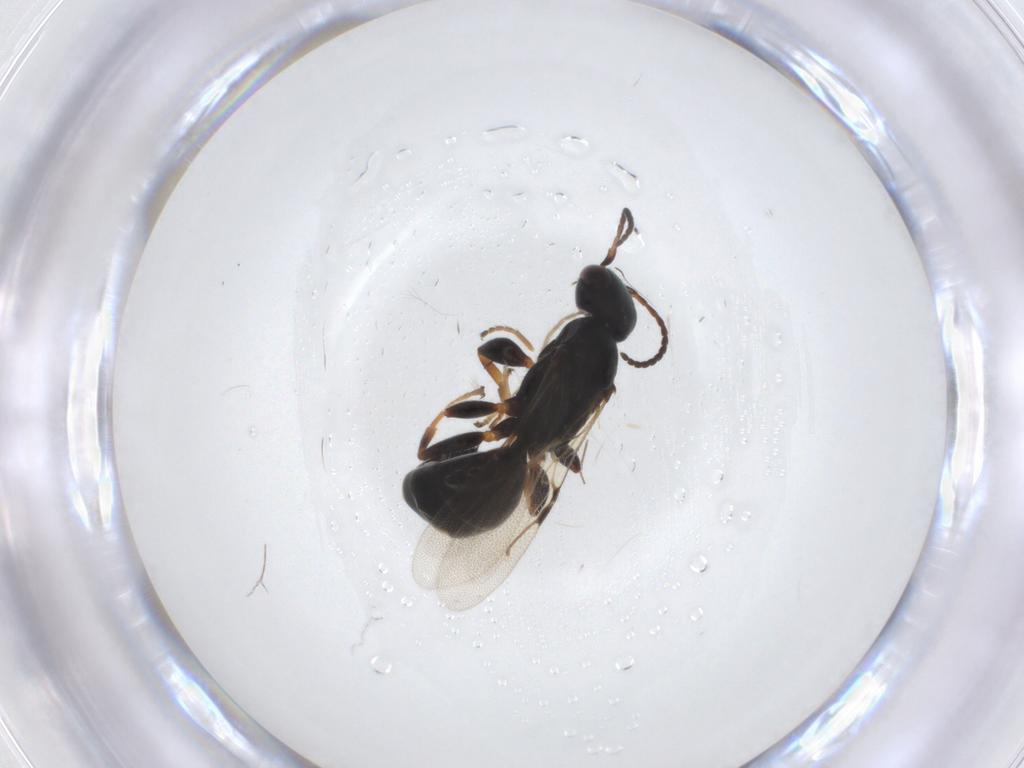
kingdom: Animalia
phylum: Arthropoda
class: Insecta
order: Hymenoptera
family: Bethylidae
